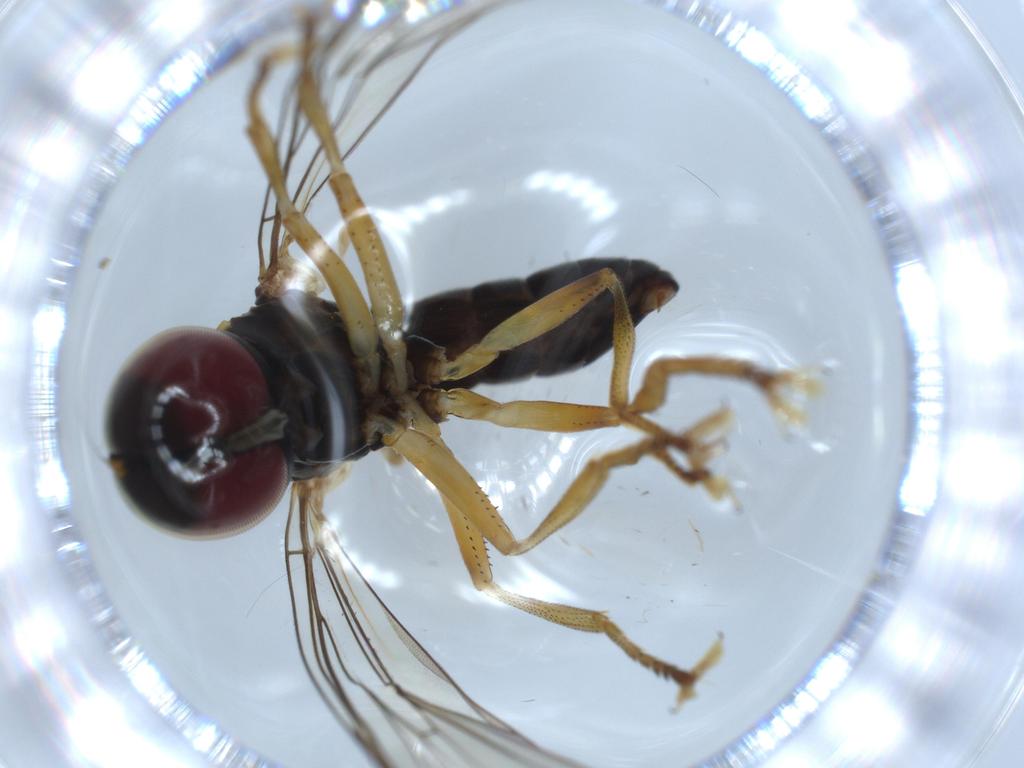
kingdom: Animalia
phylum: Arthropoda
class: Insecta
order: Diptera
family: Pipunculidae
